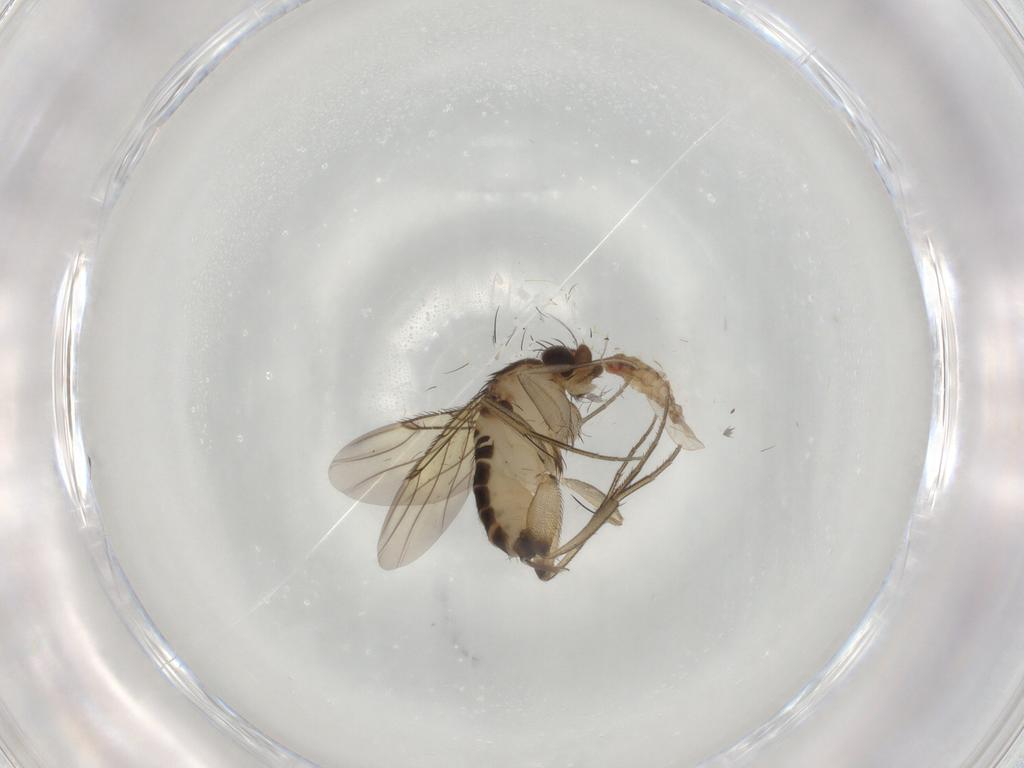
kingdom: Animalia
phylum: Arthropoda
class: Insecta
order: Diptera
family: Cecidomyiidae
